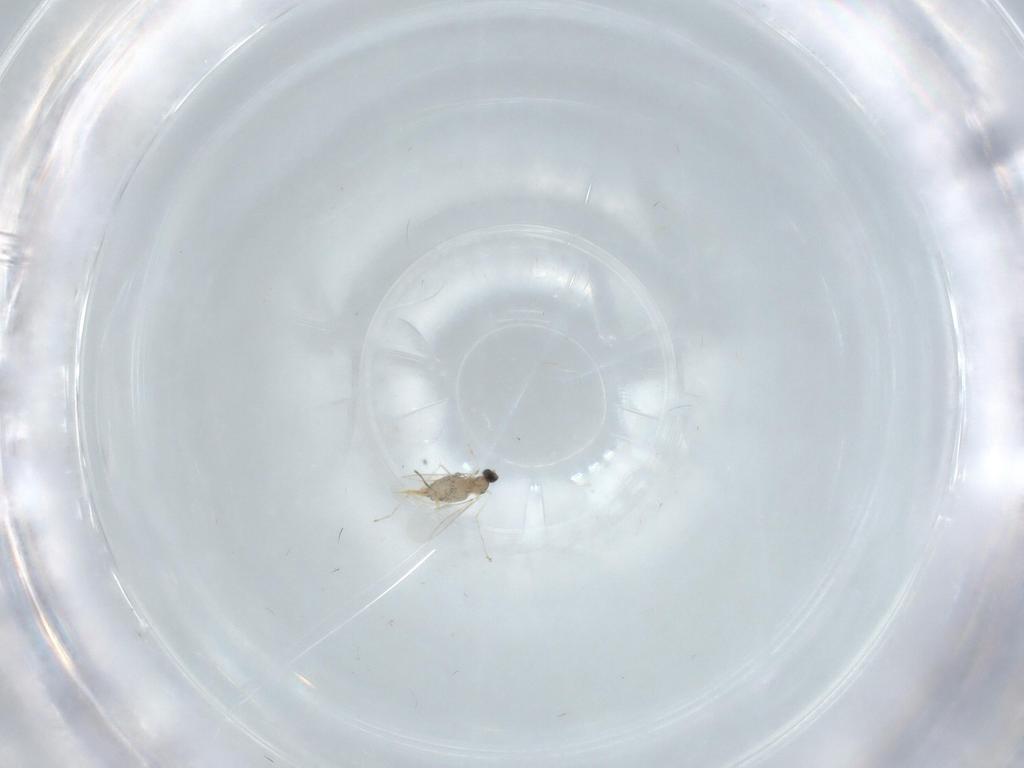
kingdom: Animalia
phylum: Arthropoda
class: Insecta
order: Diptera
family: Cecidomyiidae
